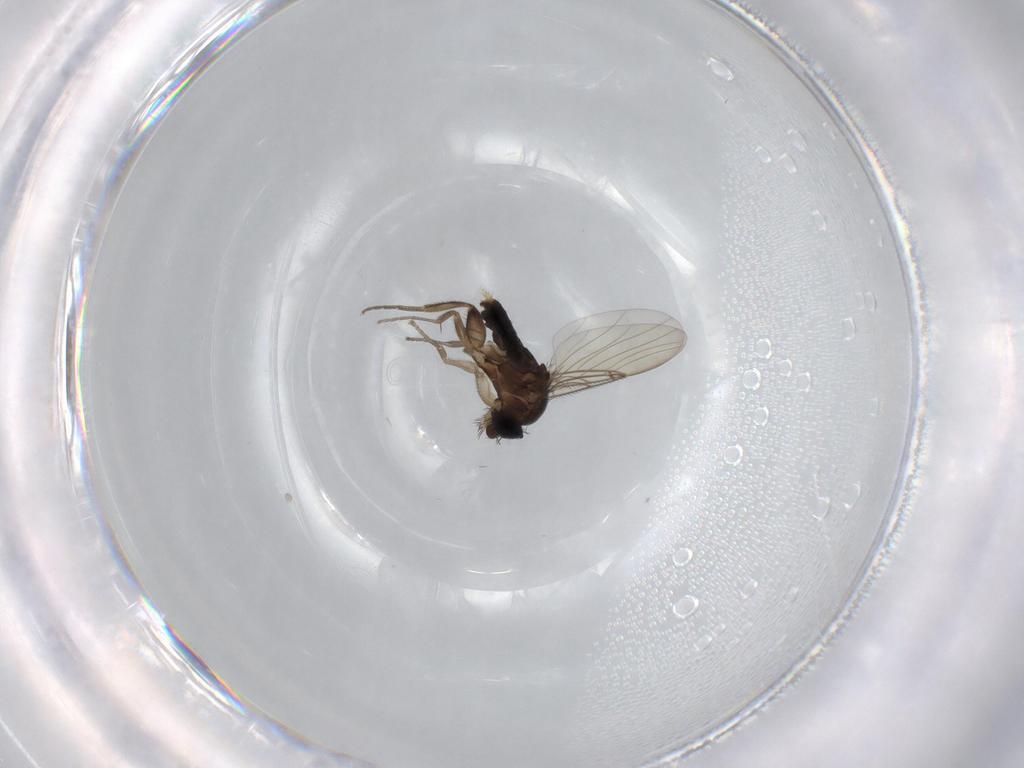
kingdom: Animalia
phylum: Arthropoda
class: Insecta
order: Diptera
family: Phoridae
